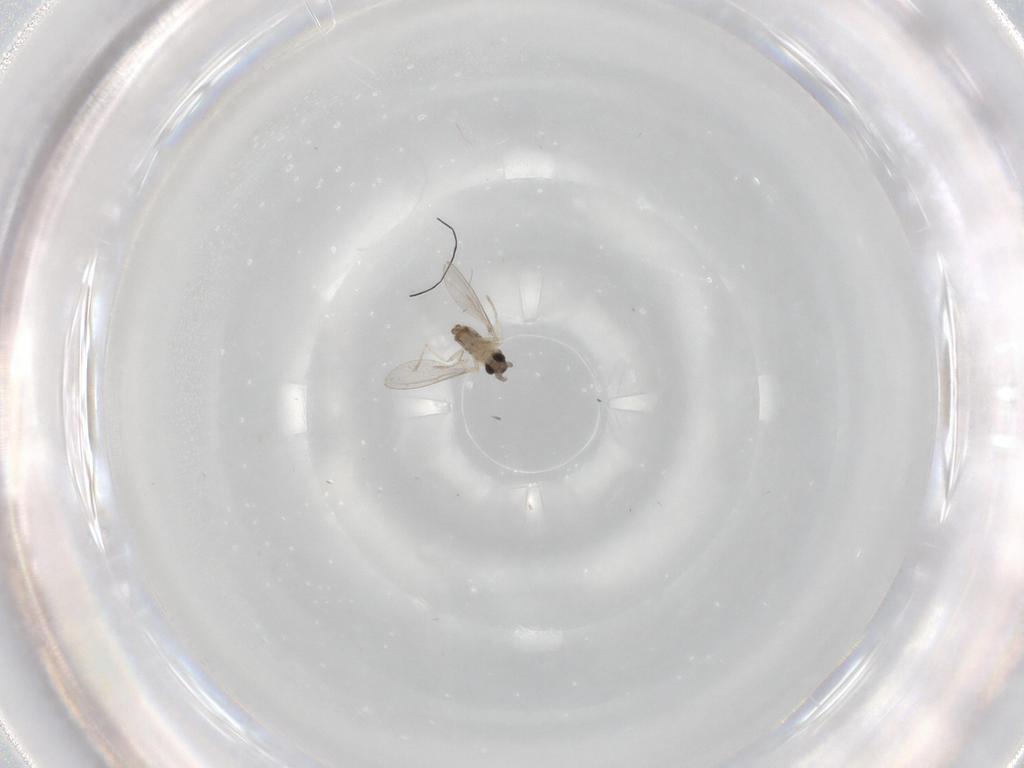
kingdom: Animalia
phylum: Arthropoda
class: Insecta
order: Diptera
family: Cecidomyiidae
